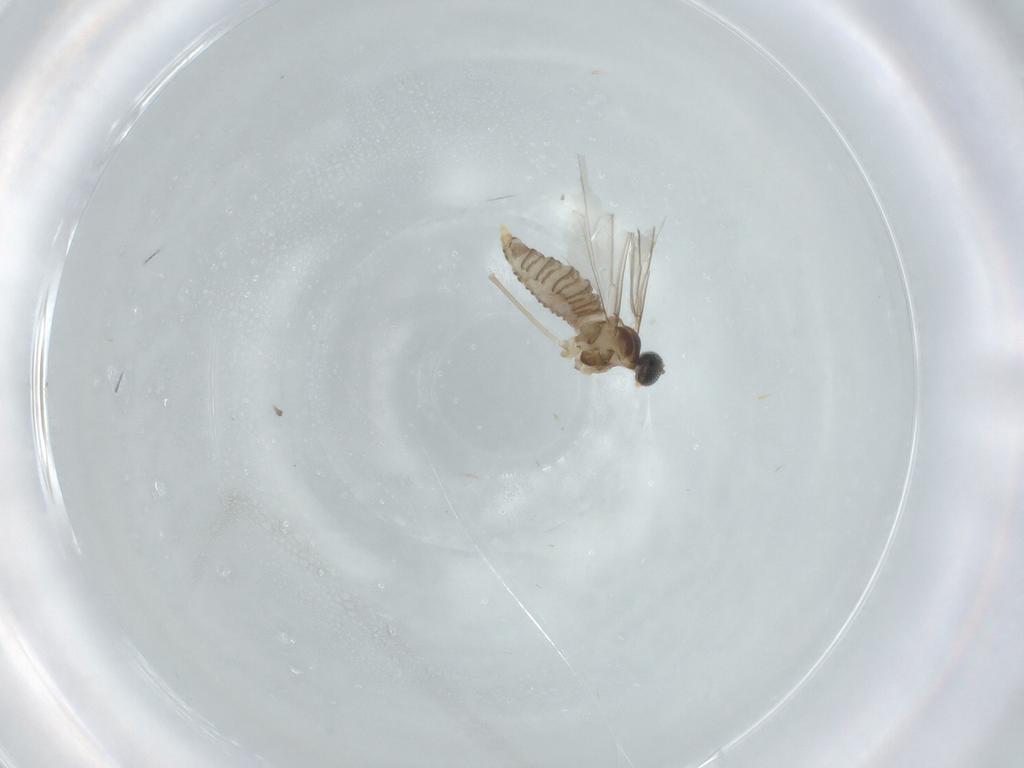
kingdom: Animalia
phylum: Arthropoda
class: Insecta
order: Diptera
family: Cecidomyiidae
